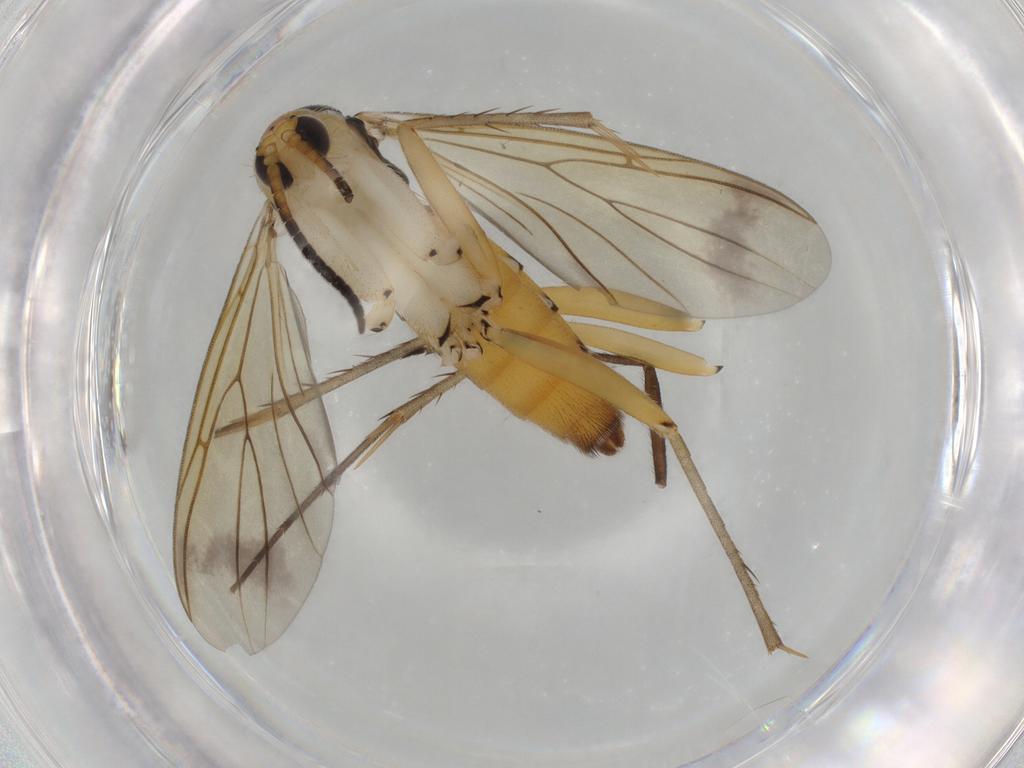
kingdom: Animalia
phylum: Arthropoda
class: Insecta
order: Diptera
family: Mycetophilidae
